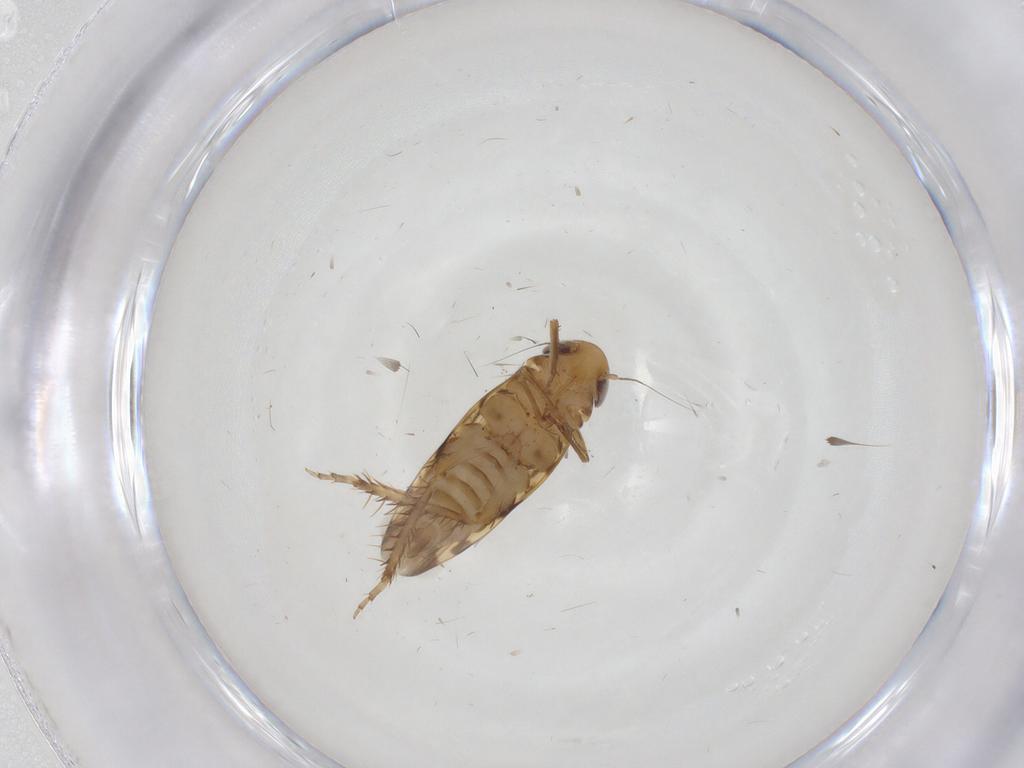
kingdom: Animalia
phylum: Arthropoda
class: Insecta
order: Hemiptera
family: Cicadellidae
